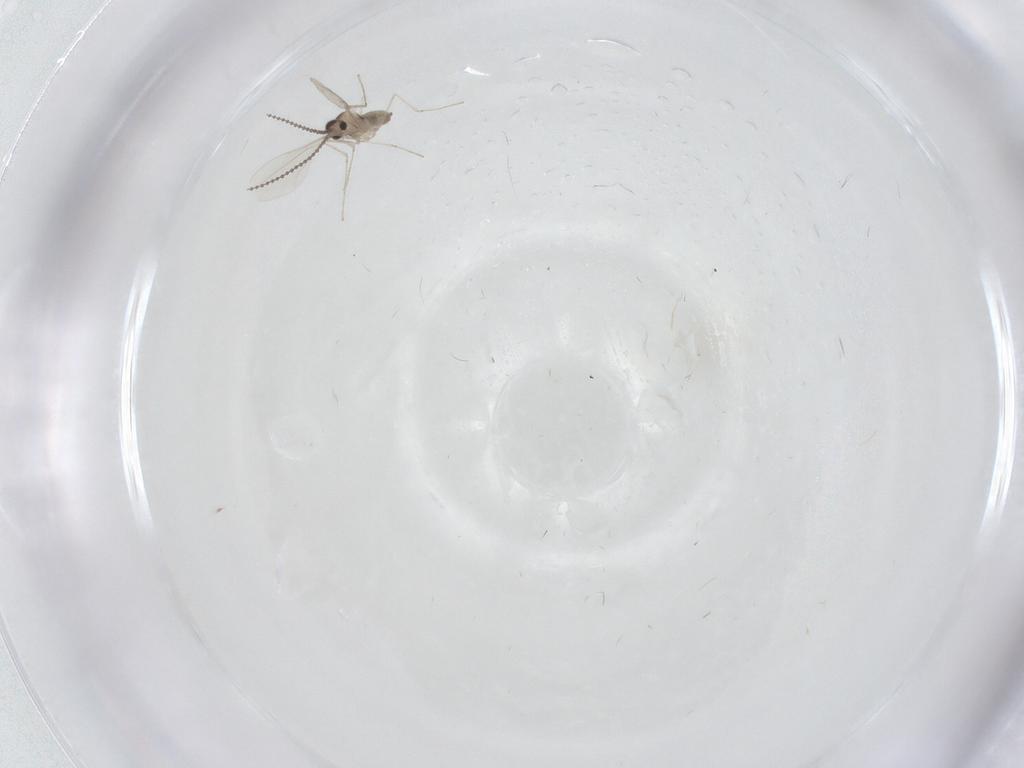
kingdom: Animalia
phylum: Arthropoda
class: Insecta
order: Diptera
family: Cecidomyiidae
